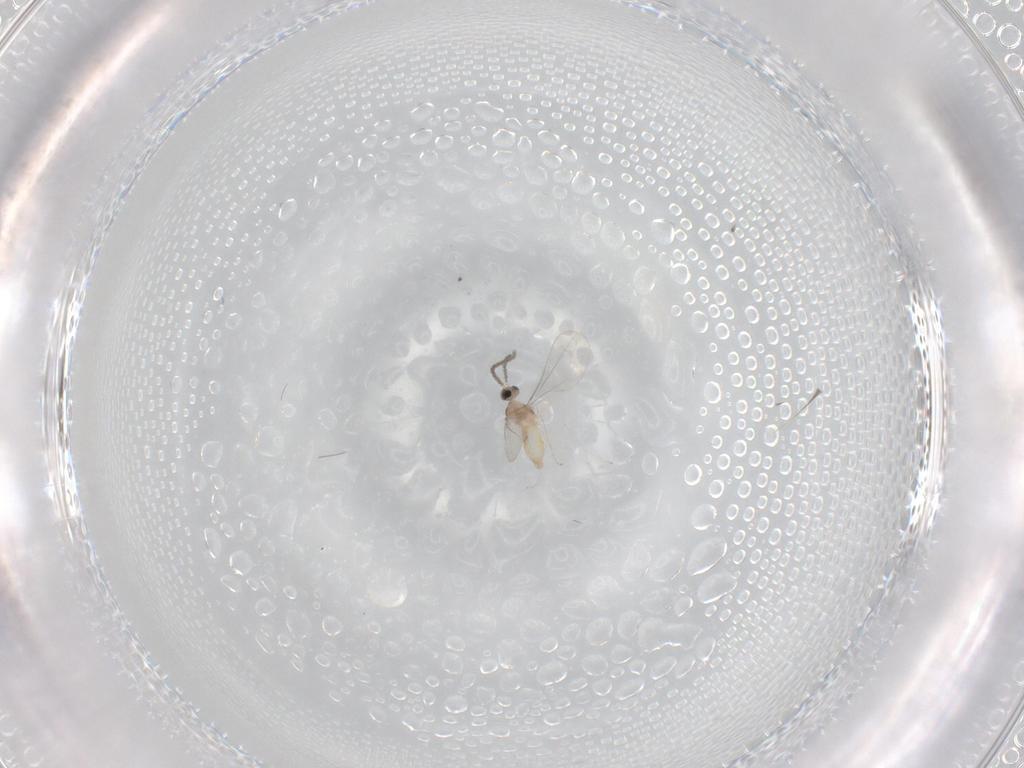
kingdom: Animalia
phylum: Arthropoda
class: Insecta
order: Diptera
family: Cecidomyiidae
